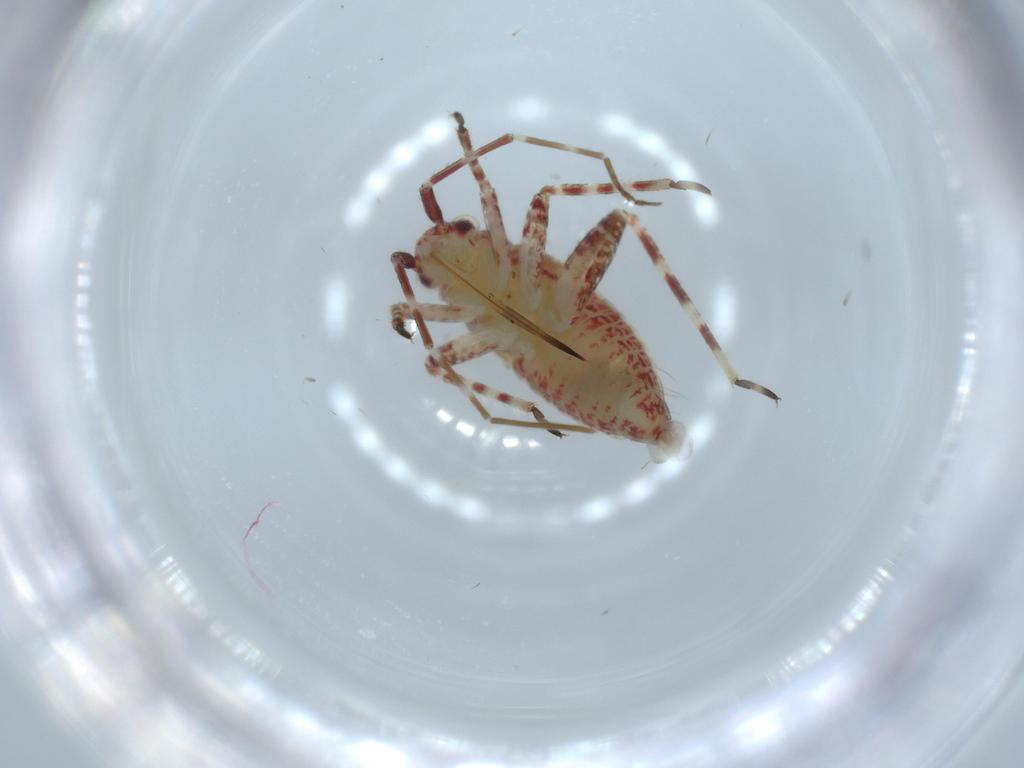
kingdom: Animalia
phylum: Arthropoda
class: Insecta
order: Hemiptera
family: Miridae
